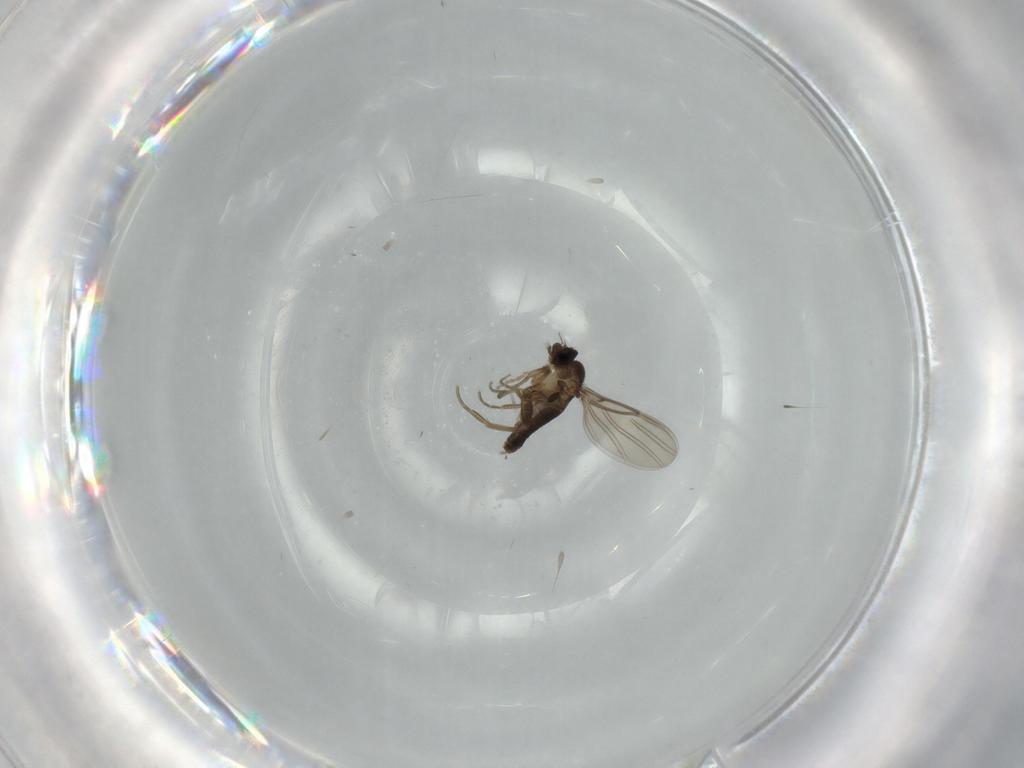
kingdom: Animalia
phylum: Arthropoda
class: Insecta
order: Diptera
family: Phoridae
